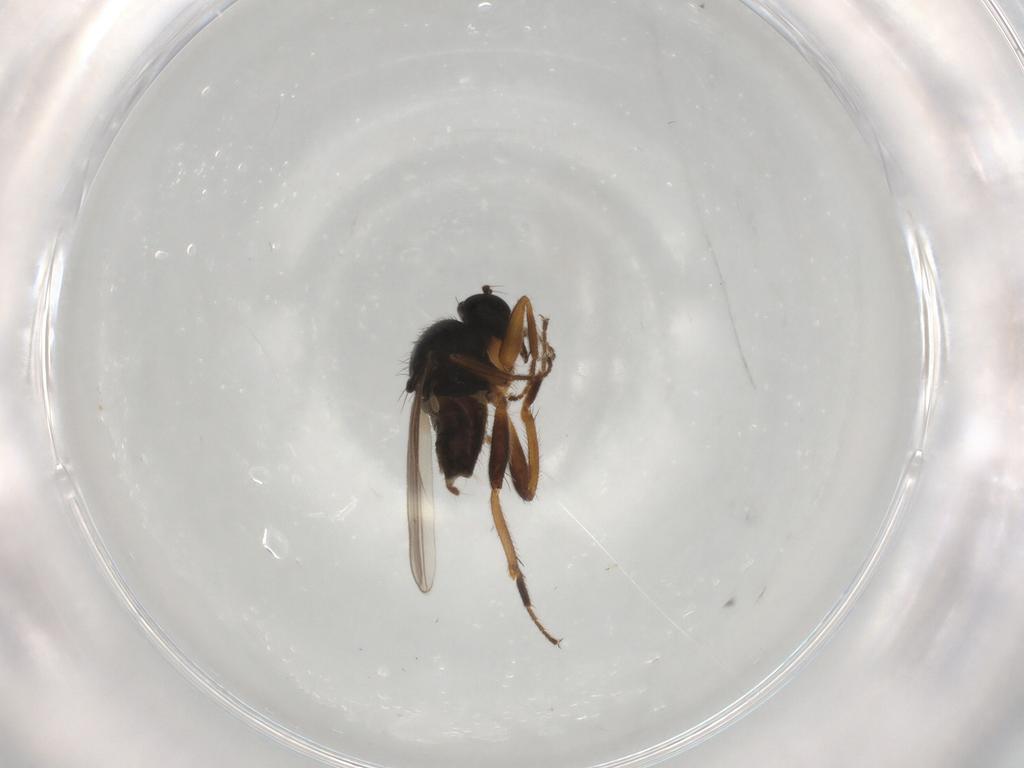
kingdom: Animalia
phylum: Arthropoda
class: Insecta
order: Diptera
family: Hybotidae
